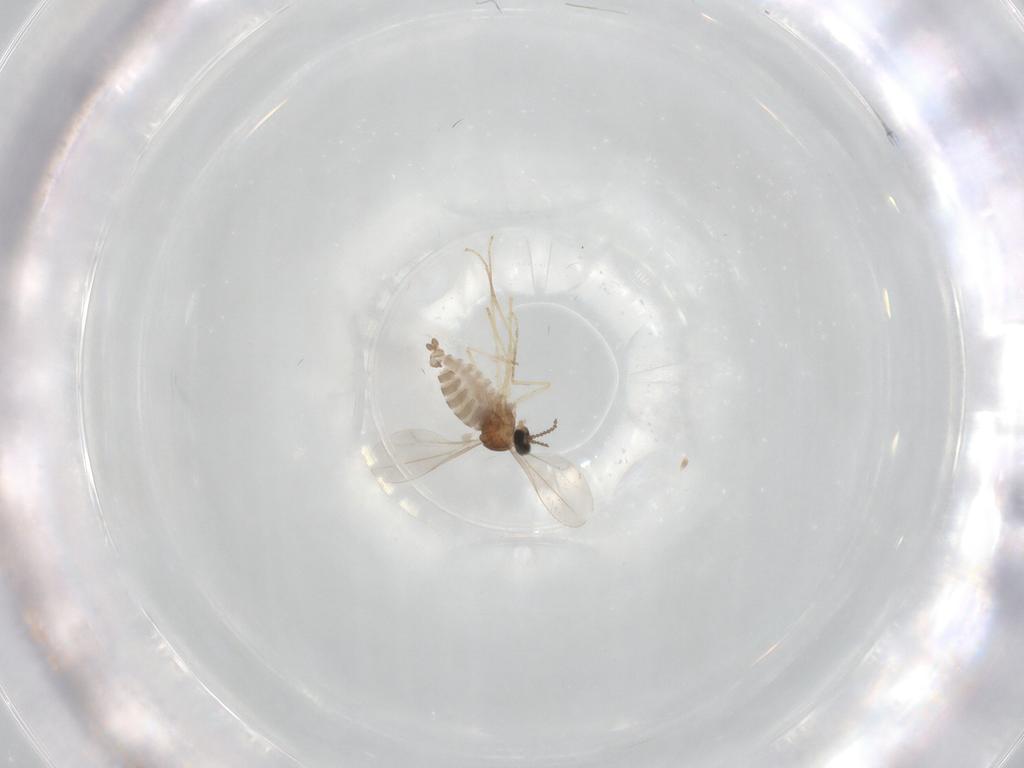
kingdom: Animalia
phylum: Arthropoda
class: Insecta
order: Diptera
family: Cecidomyiidae
